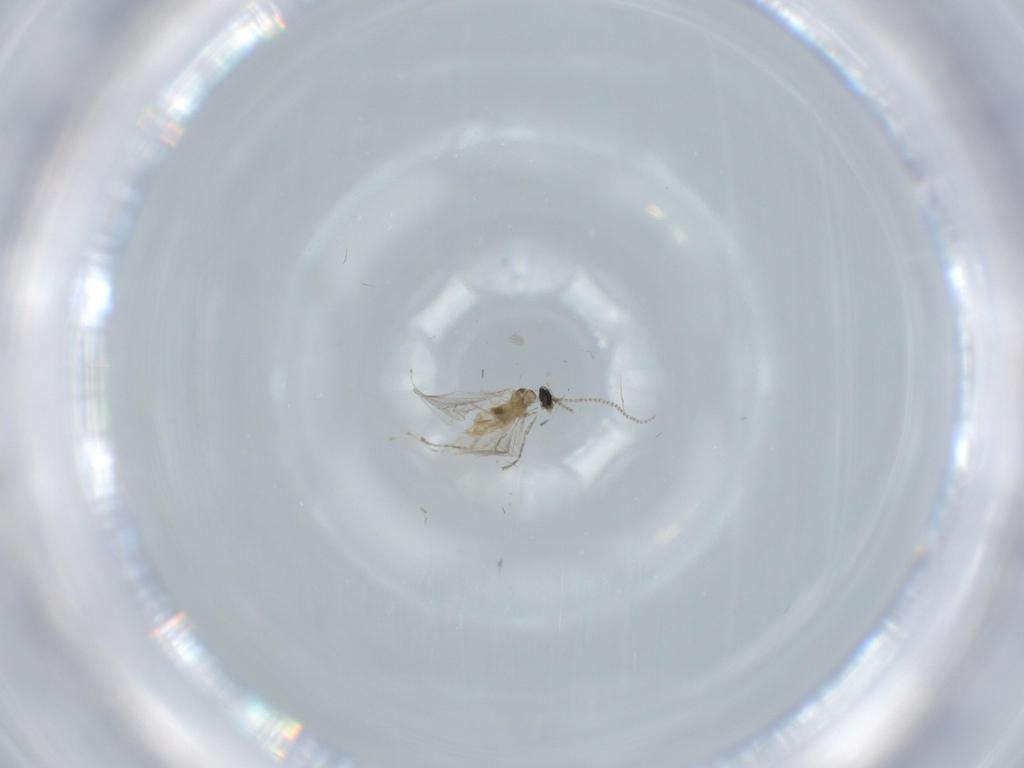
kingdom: Animalia
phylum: Arthropoda
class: Insecta
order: Diptera
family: Cecidomyiidae
